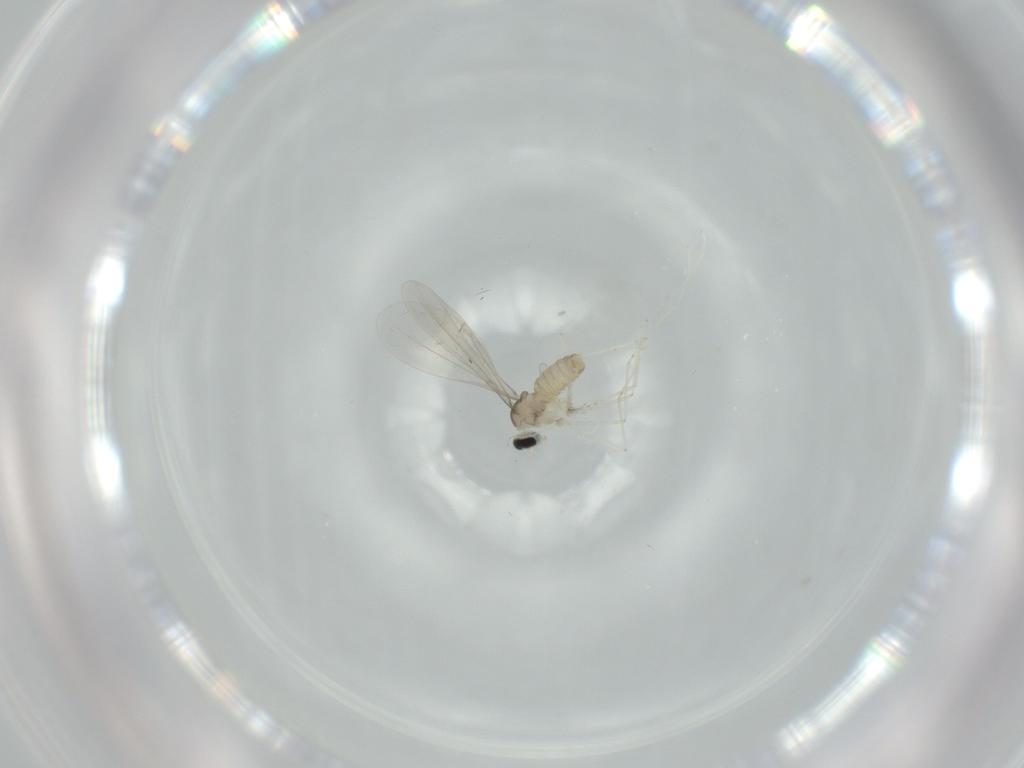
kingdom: Animalia
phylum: Arthropoda
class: Insecta
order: Diptera
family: Cecidomyiidae
